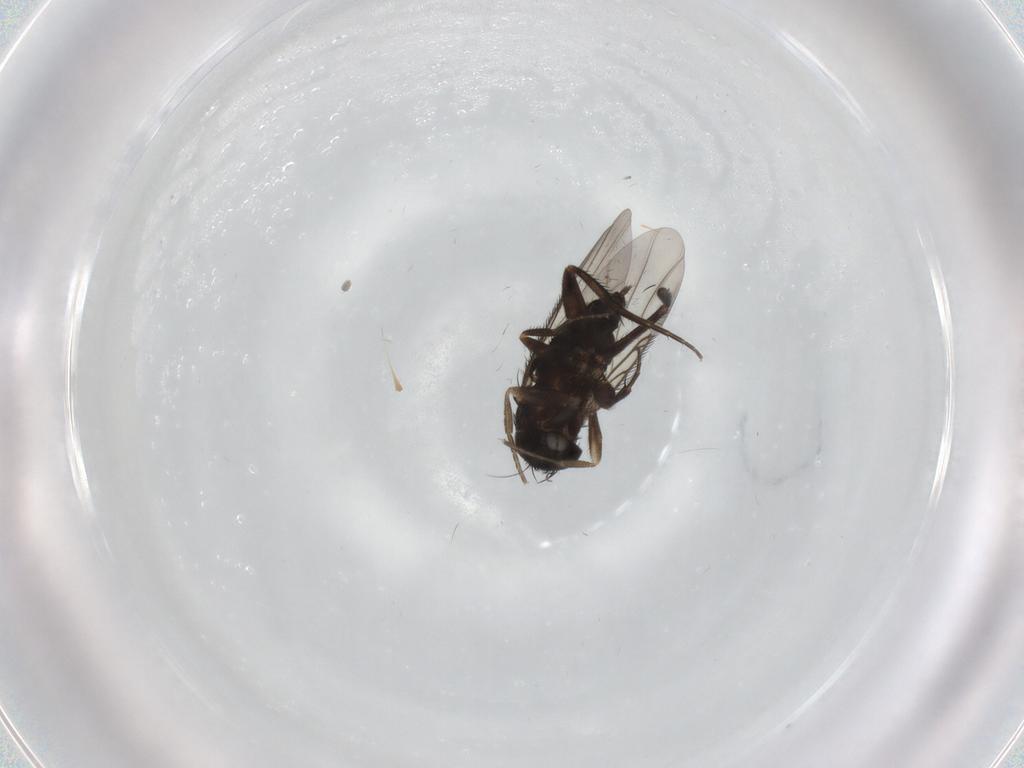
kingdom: Animalia
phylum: Arthropoda
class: Insecta
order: Diptera
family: Phoridae
